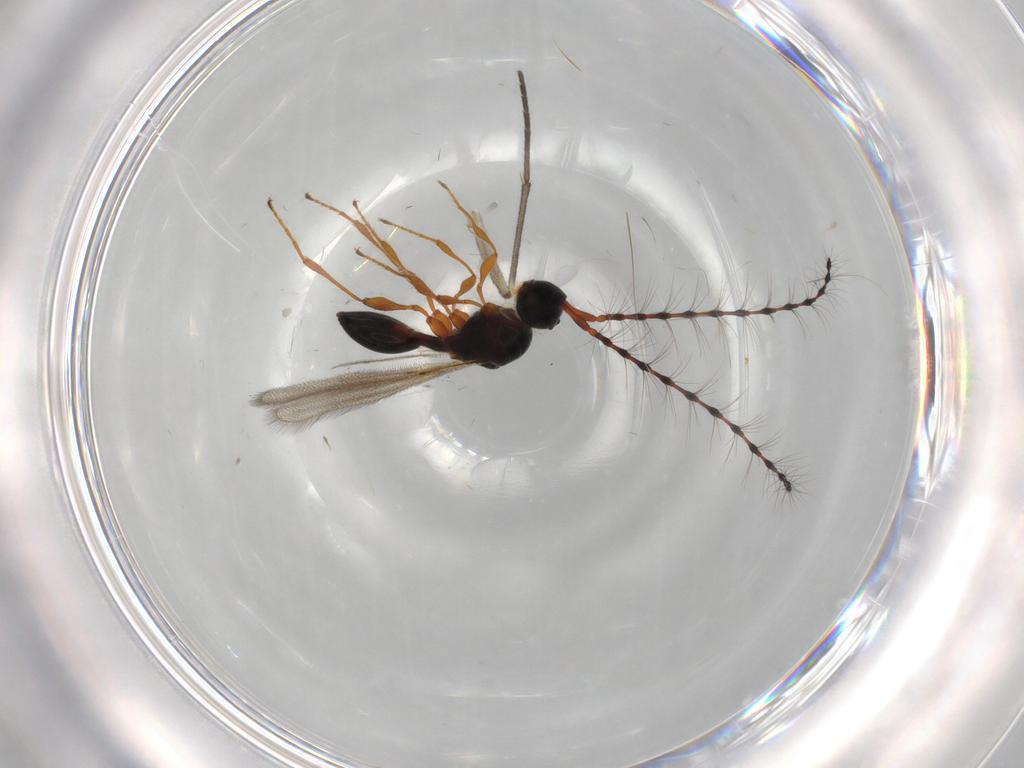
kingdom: Animalia
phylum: Arthropoda
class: Insecta
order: Hymenoptera
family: Diapriidae
